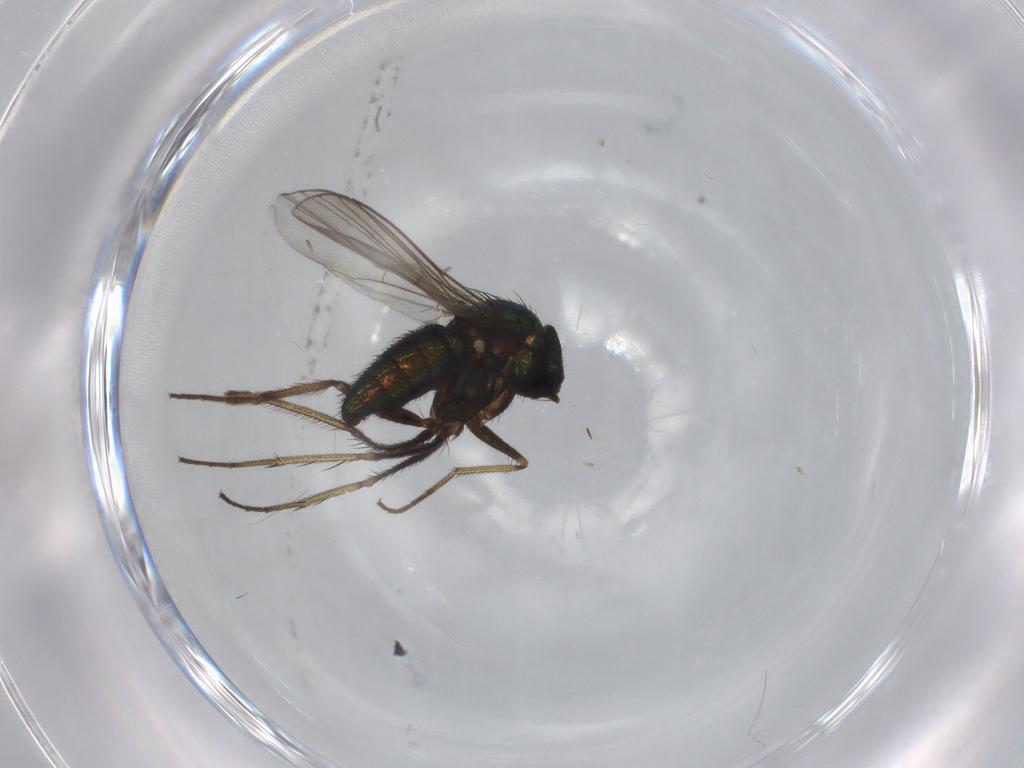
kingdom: Animalia
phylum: Arthropoda
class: Insecta
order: Diptera
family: Dolichopodidae
